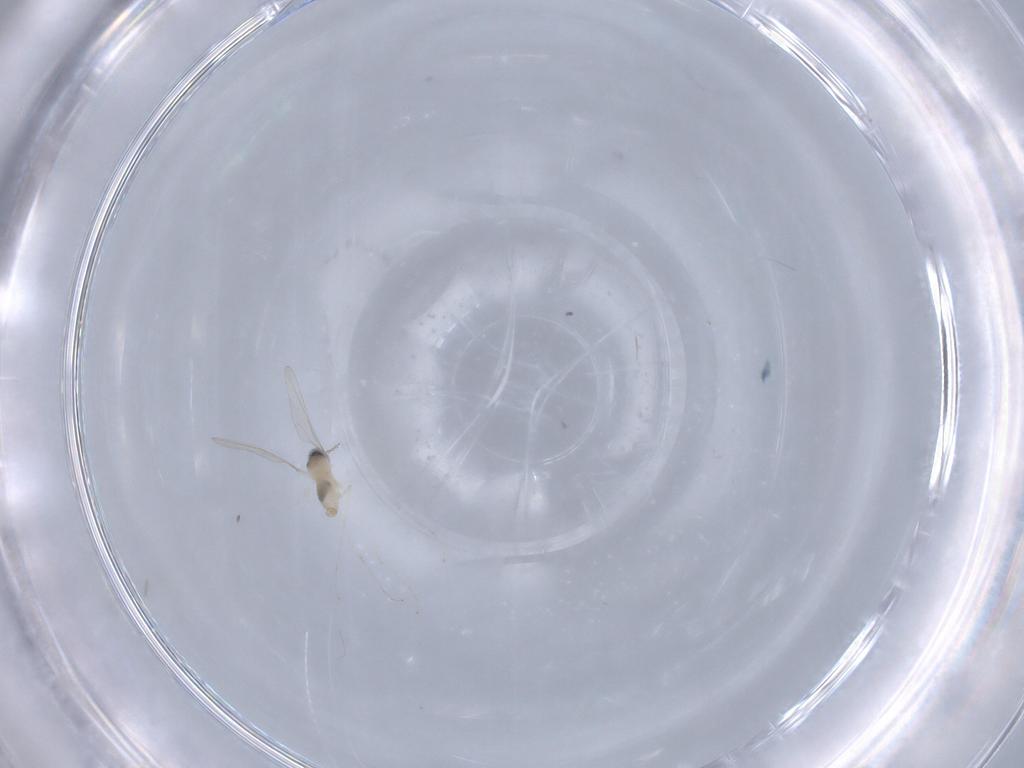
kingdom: Animalia
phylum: Arthropoda
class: Insecta
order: Diptera
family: Cecidomyiidae
